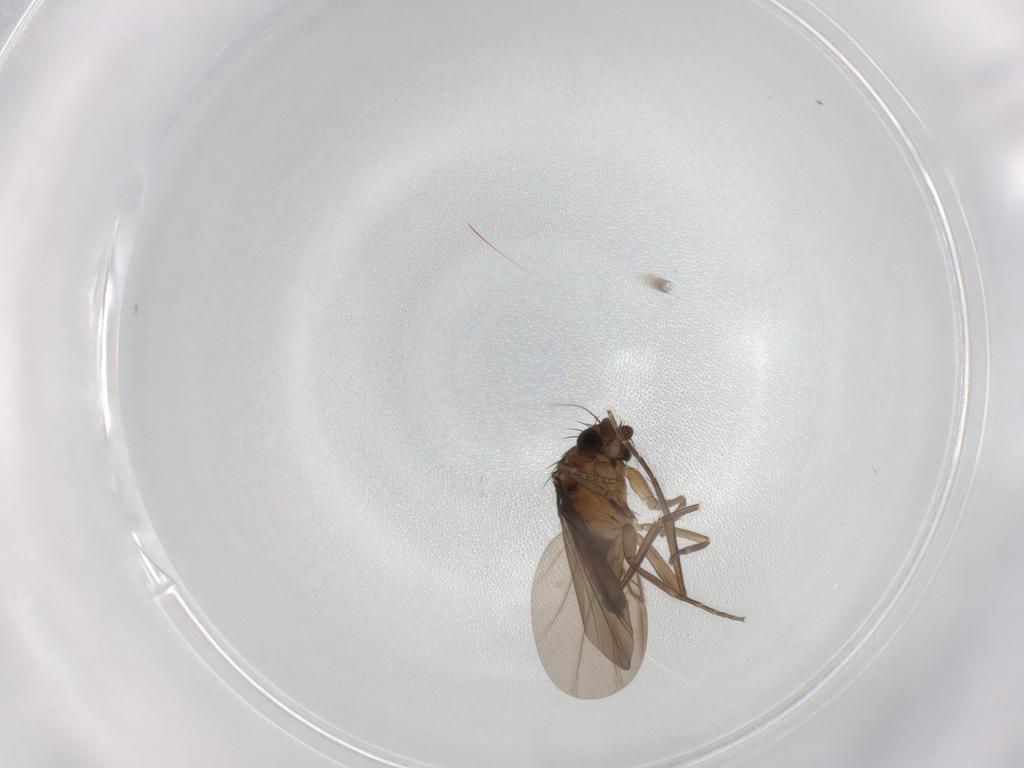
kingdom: Animalia
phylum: Arthropoda
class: Insecta
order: Diptera
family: Phoridae
